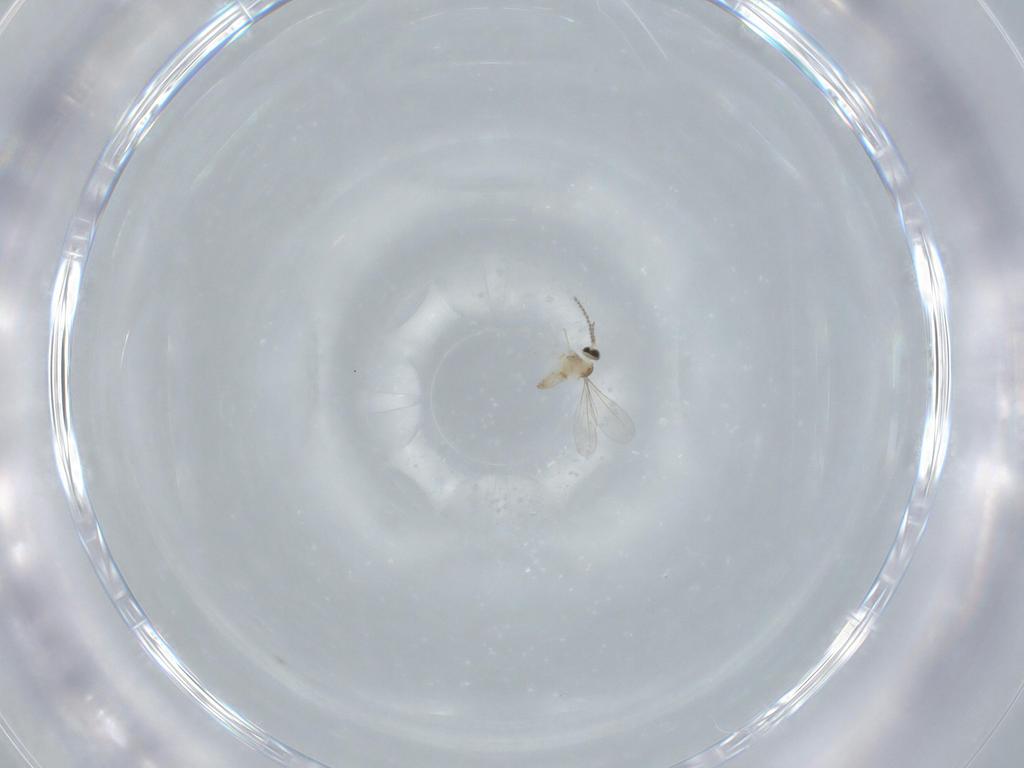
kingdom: Animalia
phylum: Arthropoda
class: Insecta
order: Diptera
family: Cecidomyiidae
